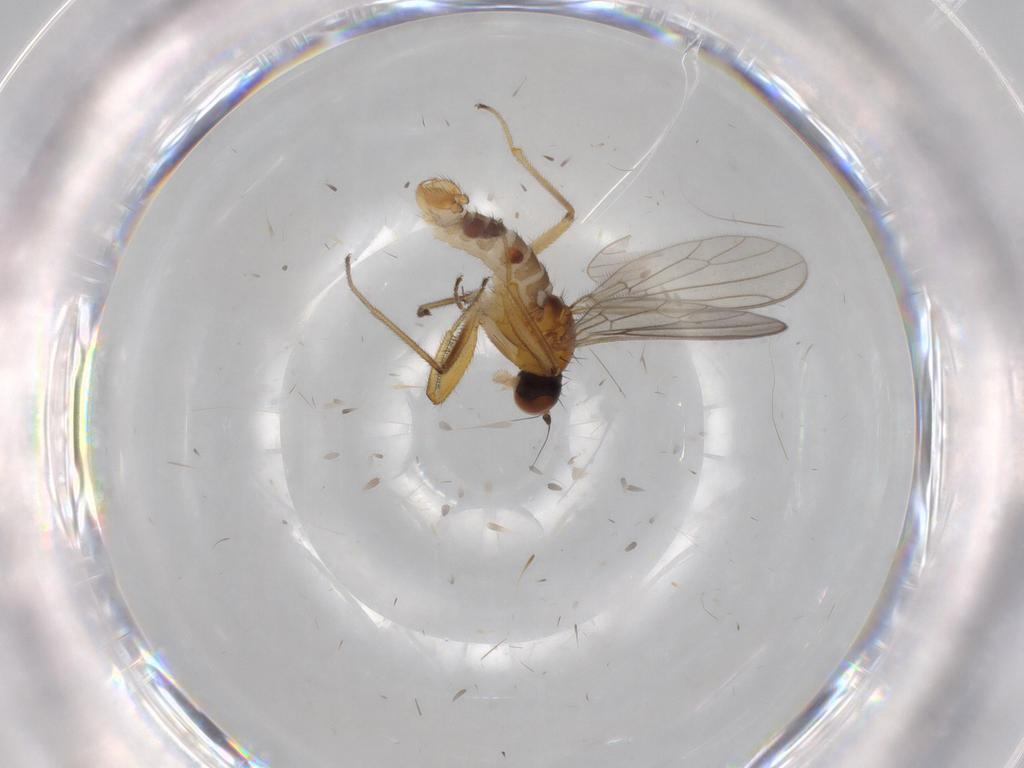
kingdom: Animalia
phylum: Arthropoda
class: Insecta
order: Diptera
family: Empididae
